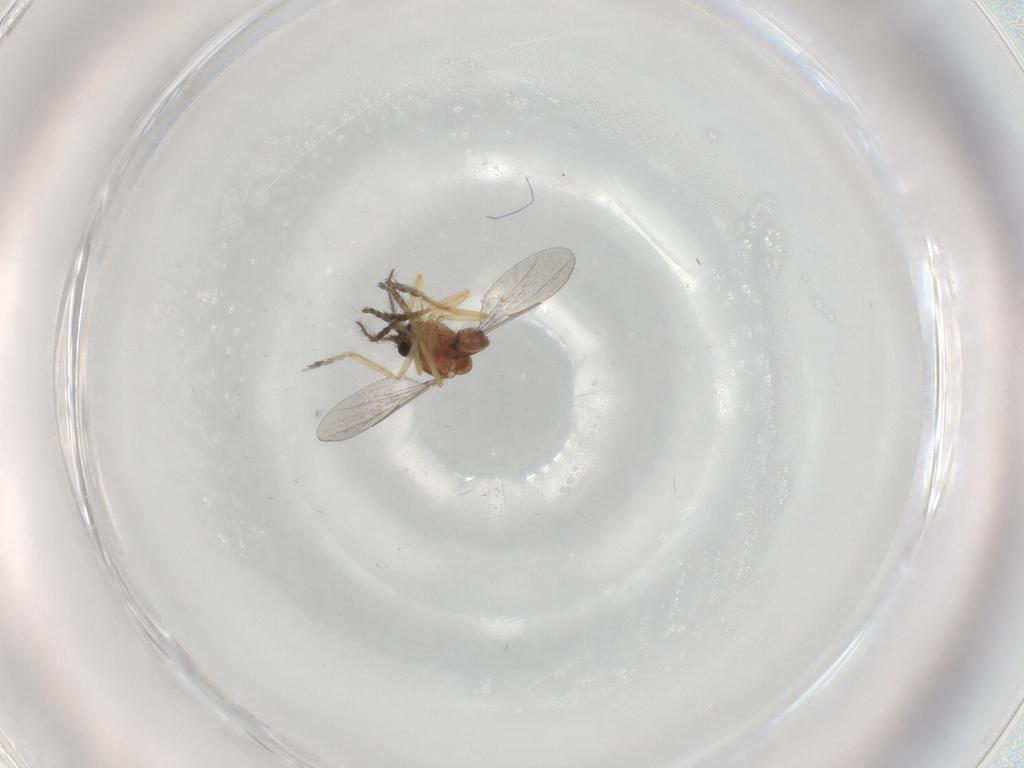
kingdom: Animalia
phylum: Arthropoda
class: Insecta
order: Diptera
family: Ceratopogonidae
